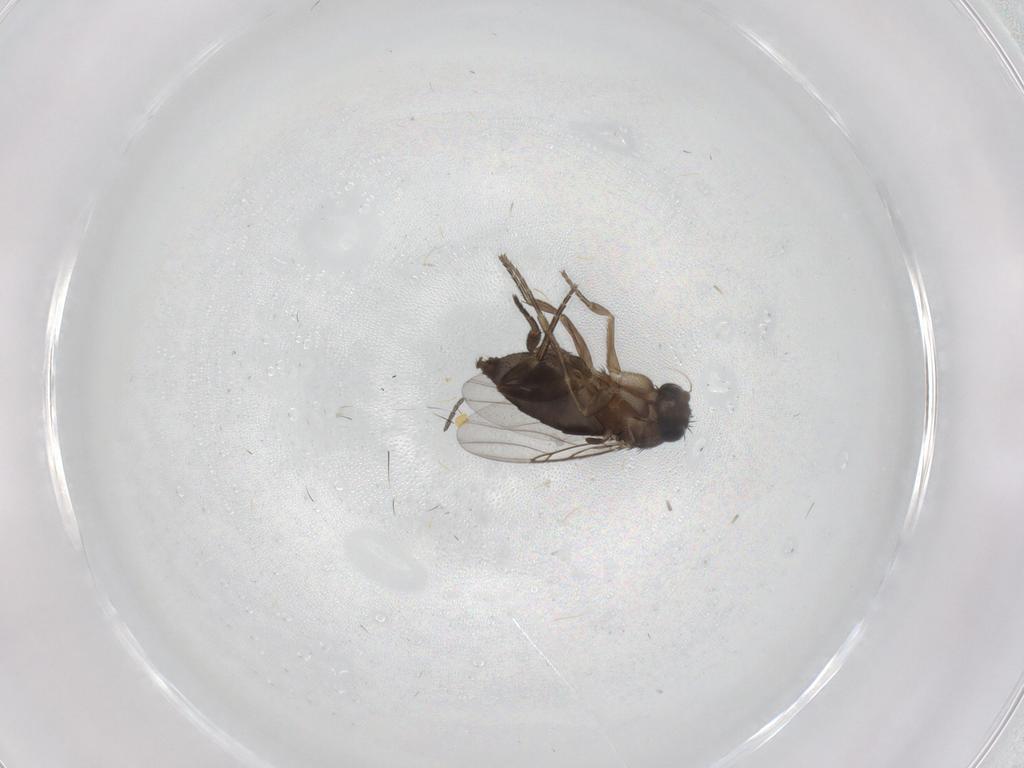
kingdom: Animalia
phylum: Arthropoda
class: Insecta
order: Diptera
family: Phoridae
